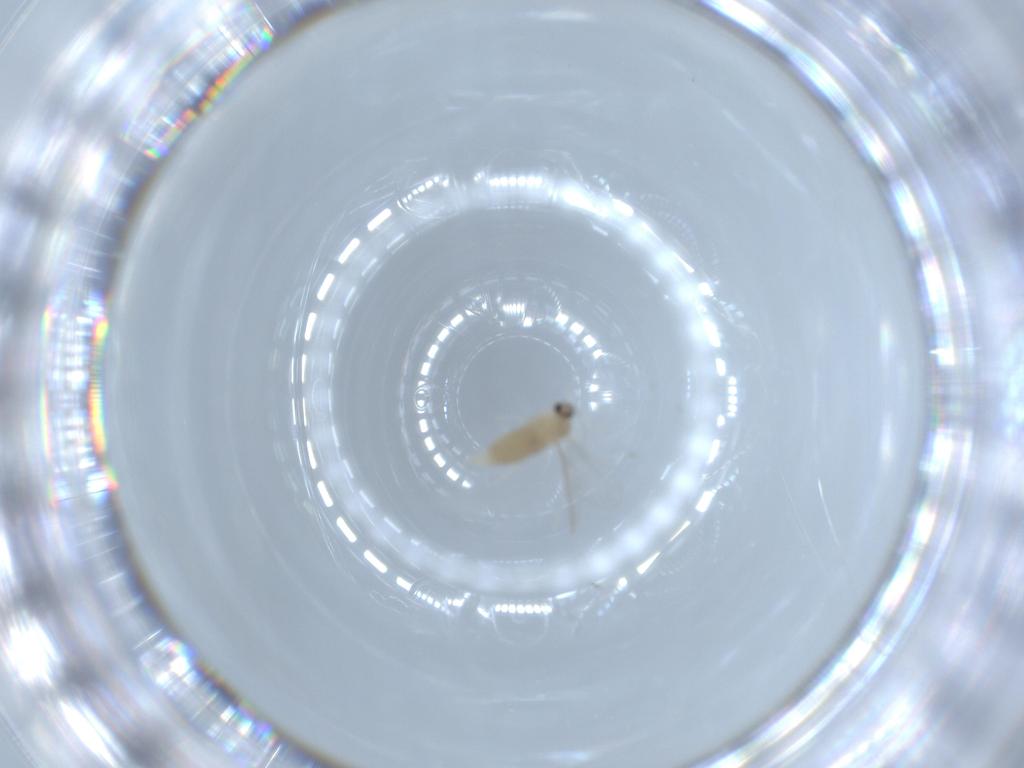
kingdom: Animalia
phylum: Arthropoda
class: Insecta
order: Diptera
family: Cecidomyiidae
